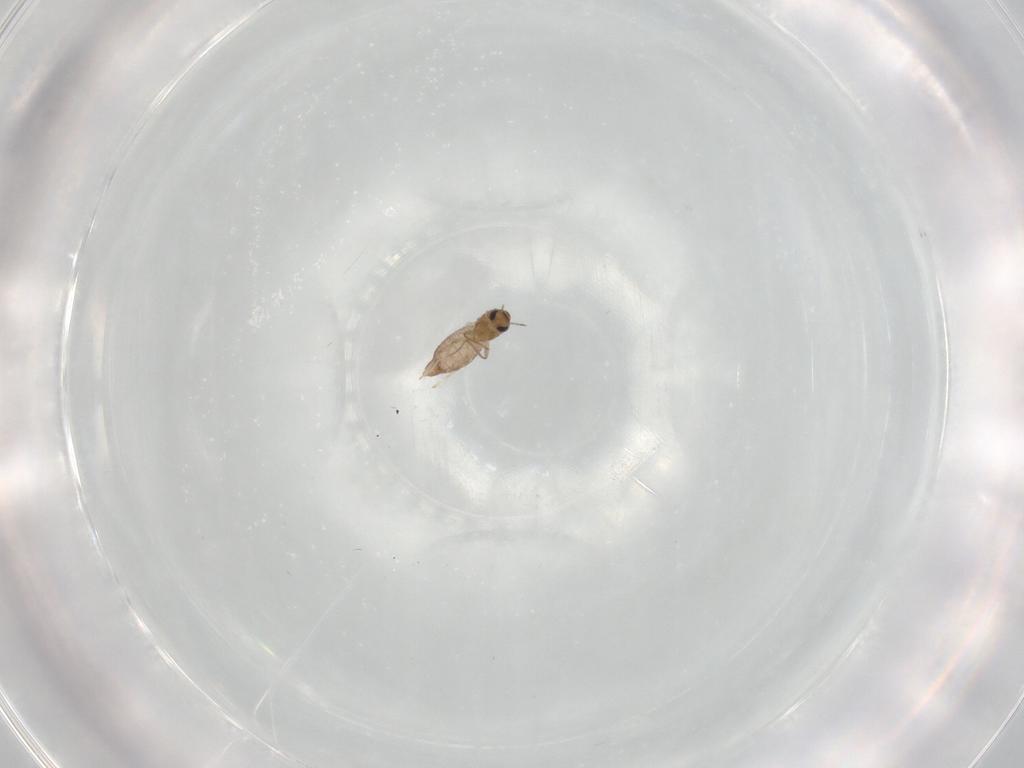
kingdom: Animalia
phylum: Arthropoda
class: Insecta
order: Diptera
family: Chironomidae
